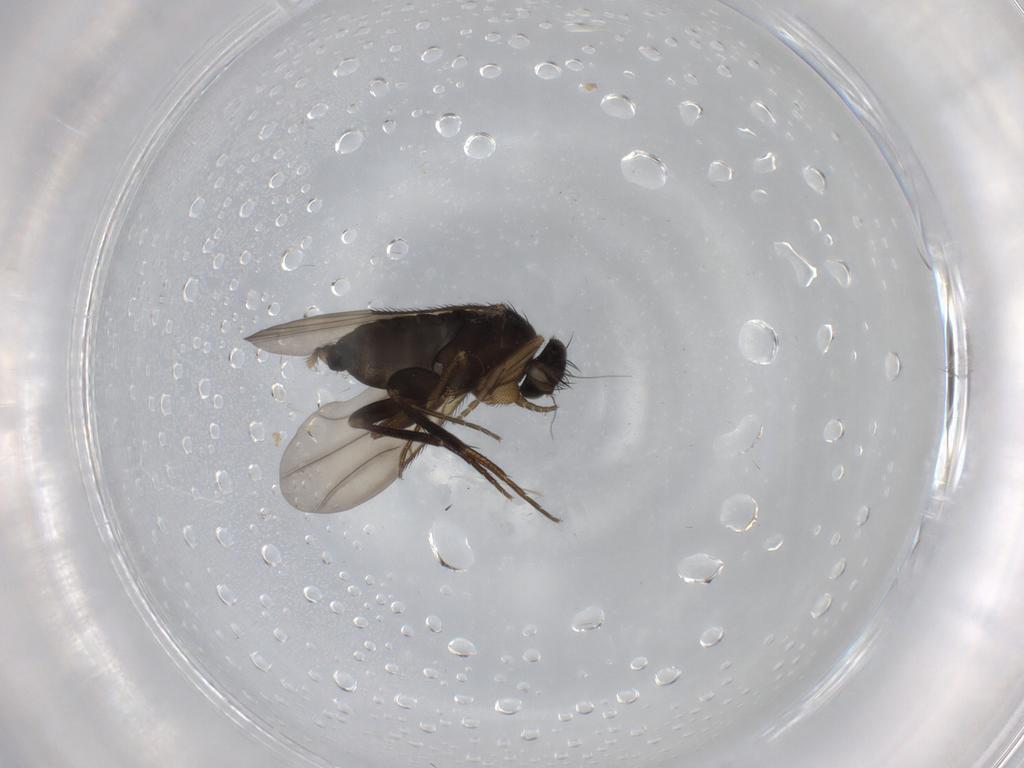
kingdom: Animalia
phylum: Arthropoda
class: Insecta
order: Diptera
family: Phoridae
